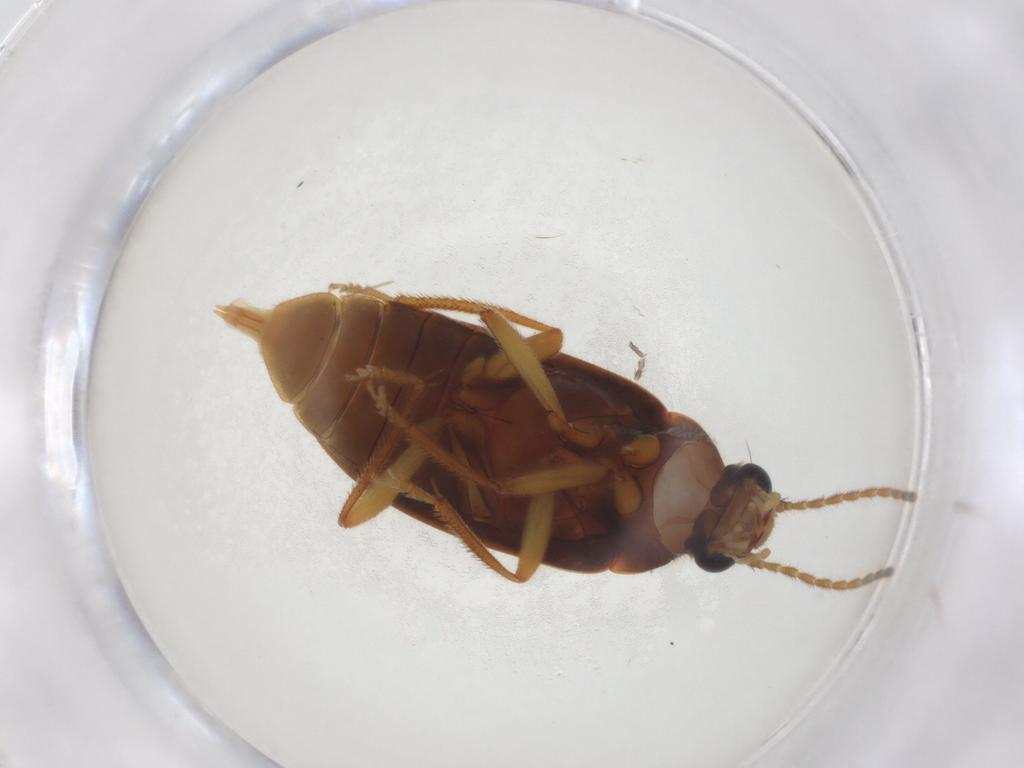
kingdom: Animalia
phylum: Arthropoda
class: Insecta
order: Coleoptera
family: Ptilodactylidae
